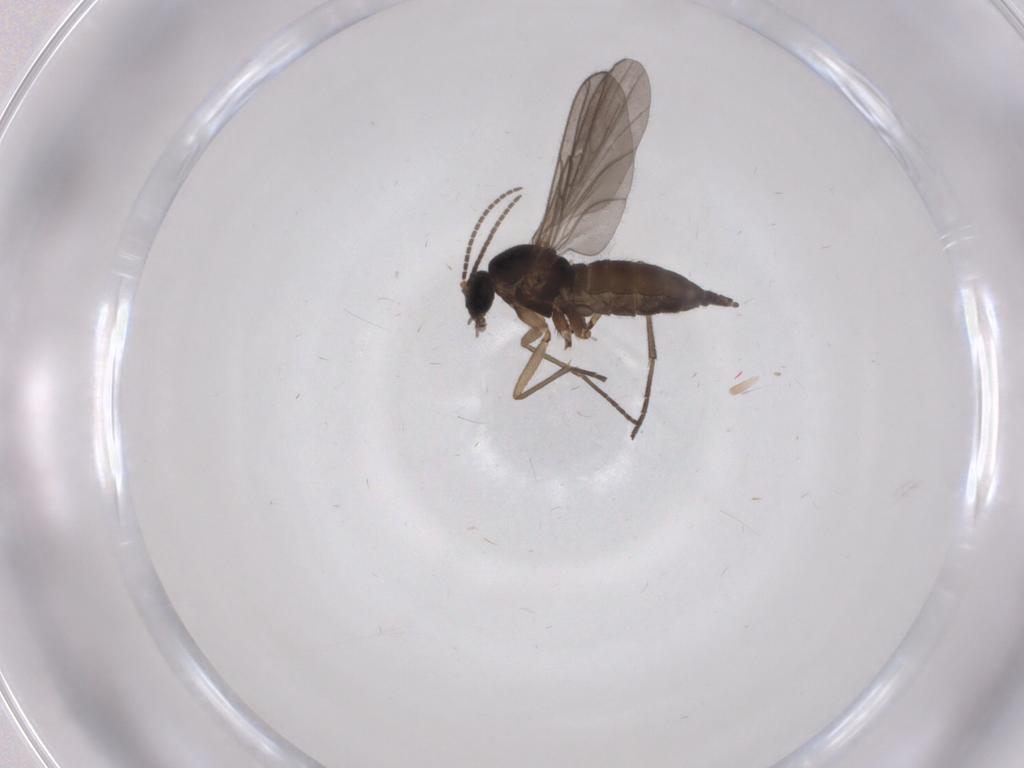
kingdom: Animalia
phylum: Arthropoda
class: Insecta
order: Diptera
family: Sciaridae
